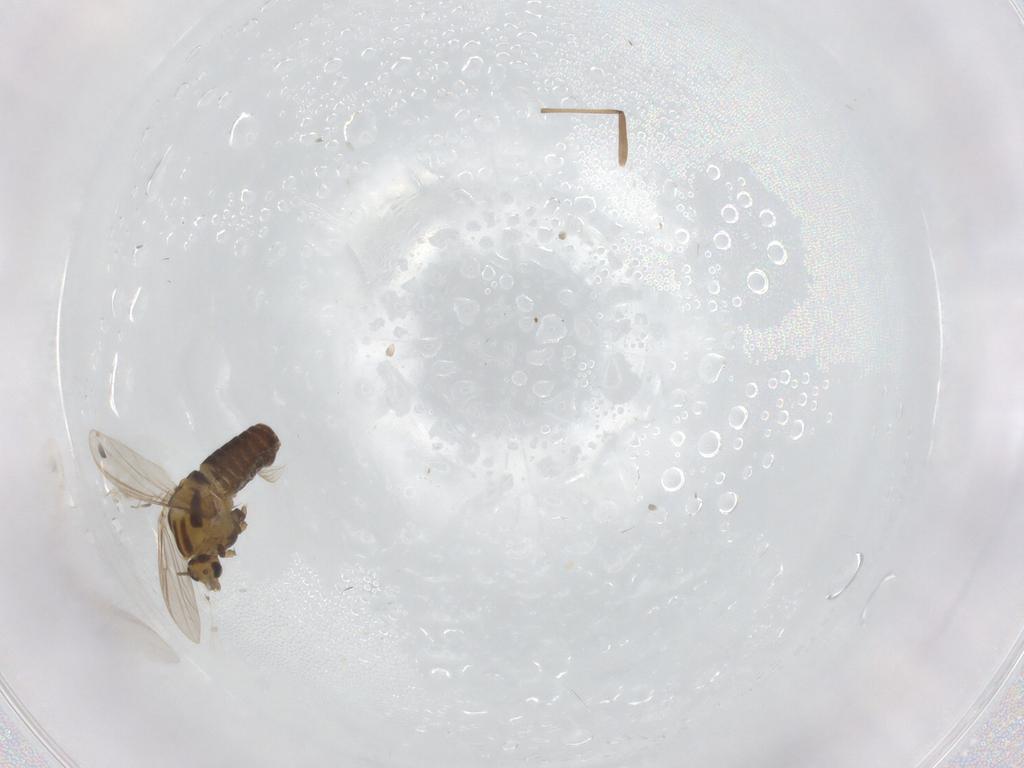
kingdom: Animalia
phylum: Arthropoda
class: Insecta
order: Diptera
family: Chironomidae
